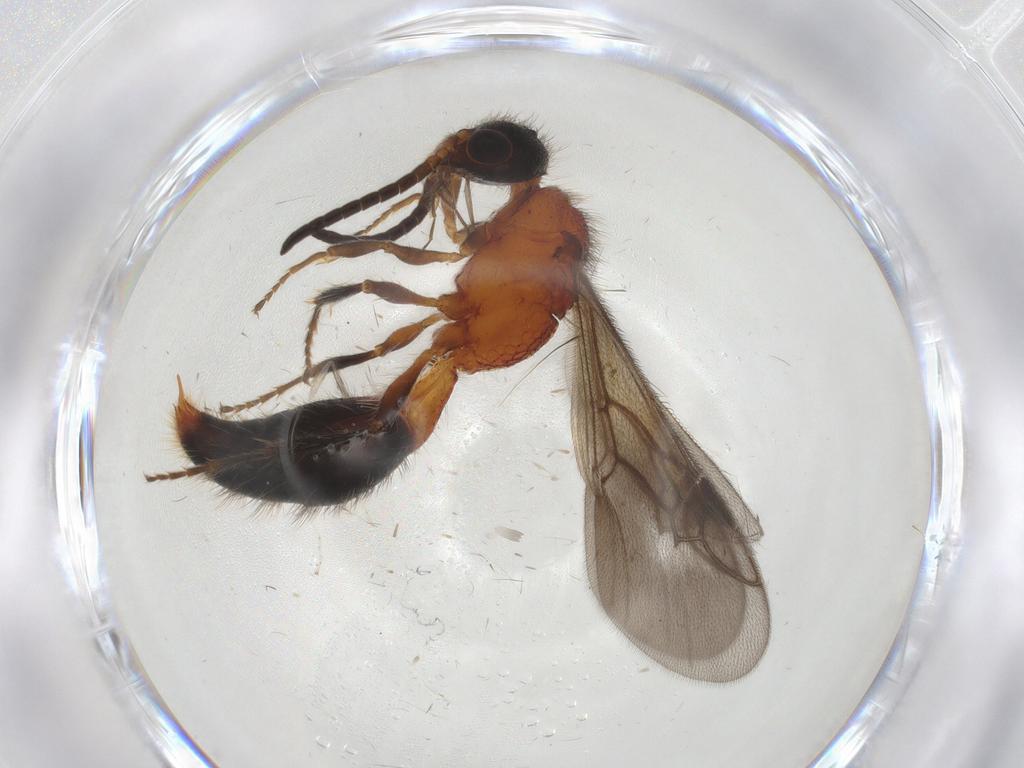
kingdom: Animalia
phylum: Arthropoda
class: Insecta
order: Hymenoptera
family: Mutillidae
